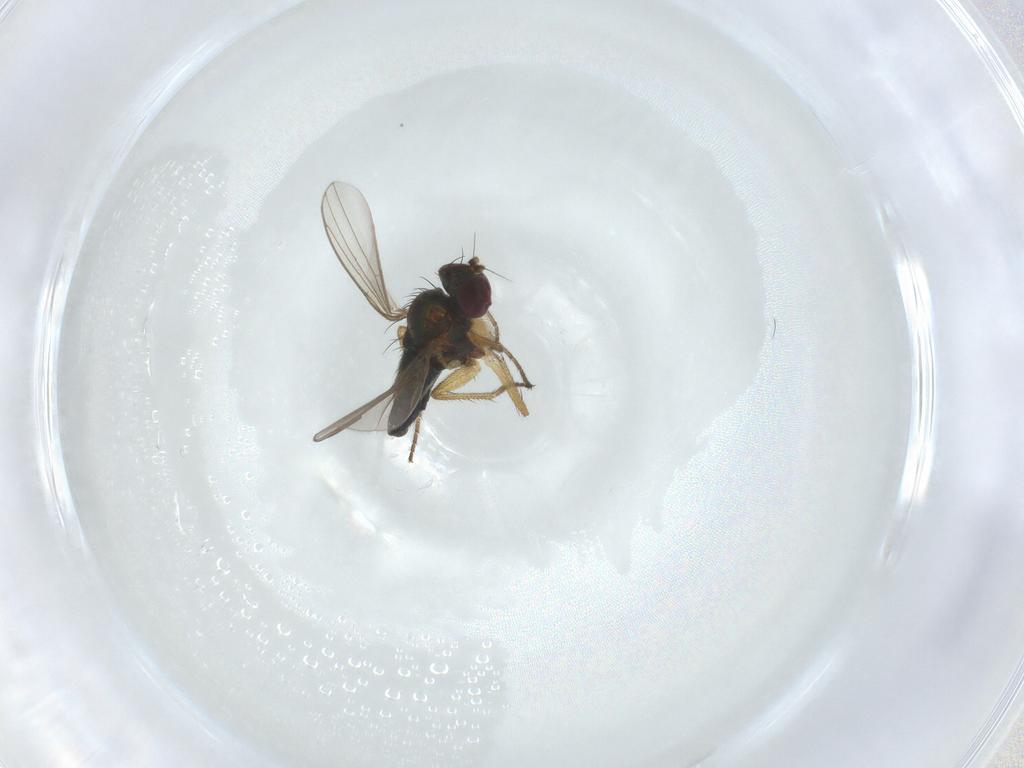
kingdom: Animalia
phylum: Arthropoda
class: Insecta
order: Diptera
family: Dolichopodidae
